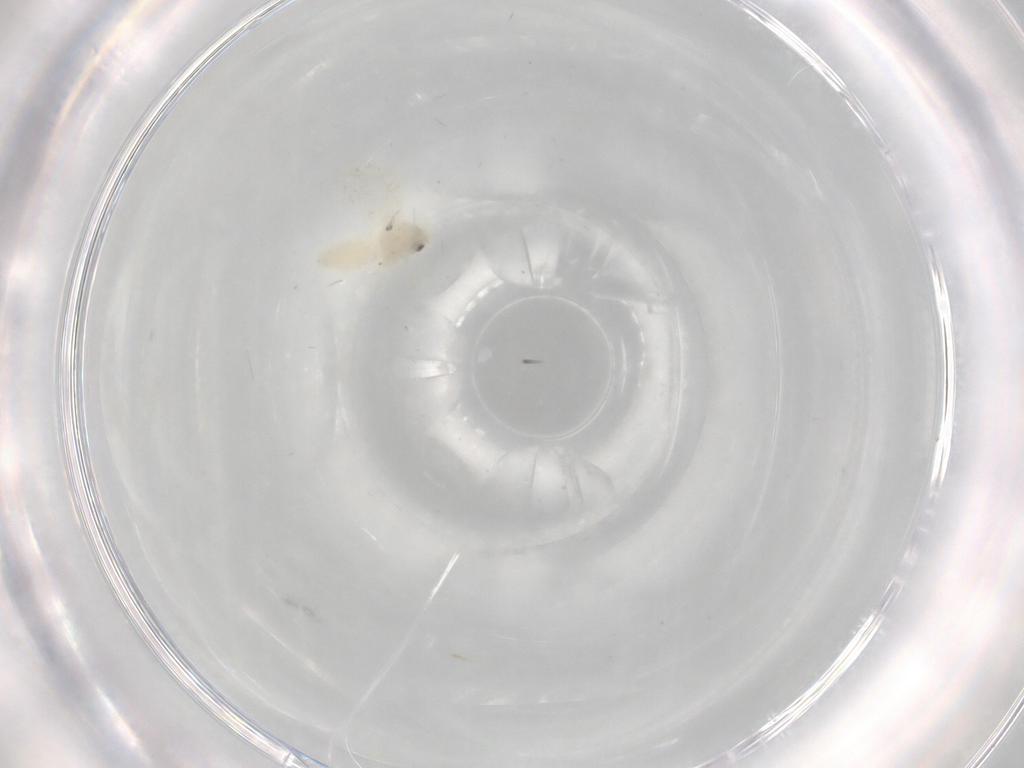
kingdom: Animalia
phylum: Arthropoda
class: Insecta
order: Hemiptera
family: Aleyrodidae
